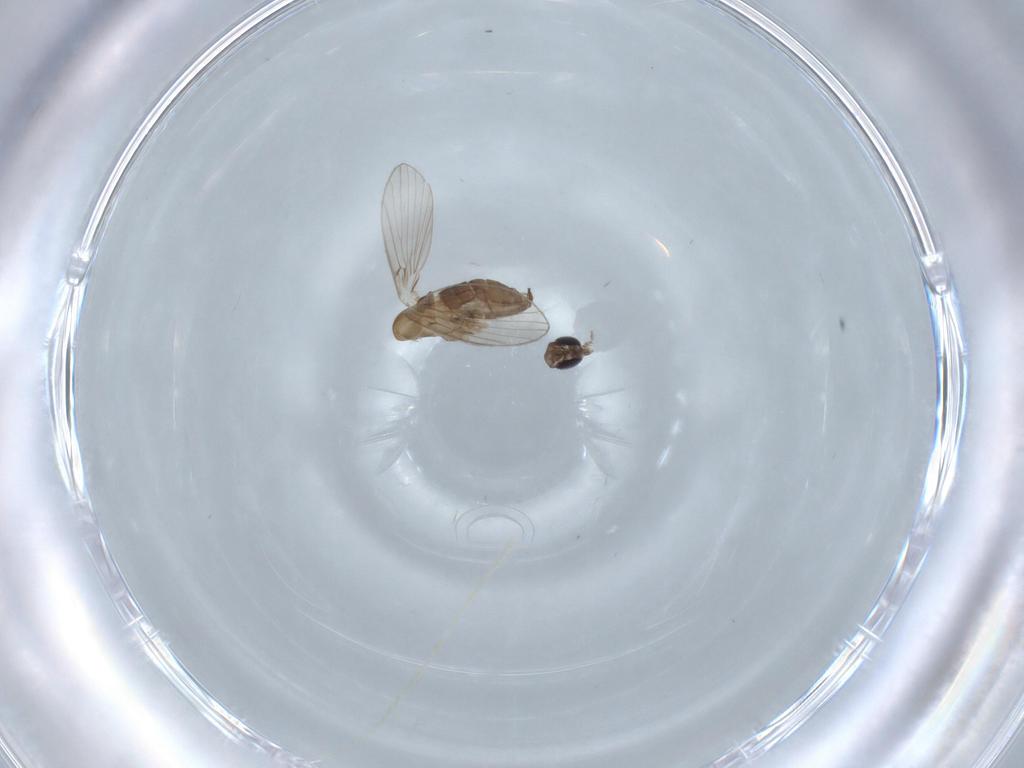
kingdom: Animalia
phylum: Arthropoda
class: Insecta
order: Diptera
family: Psychodidae
